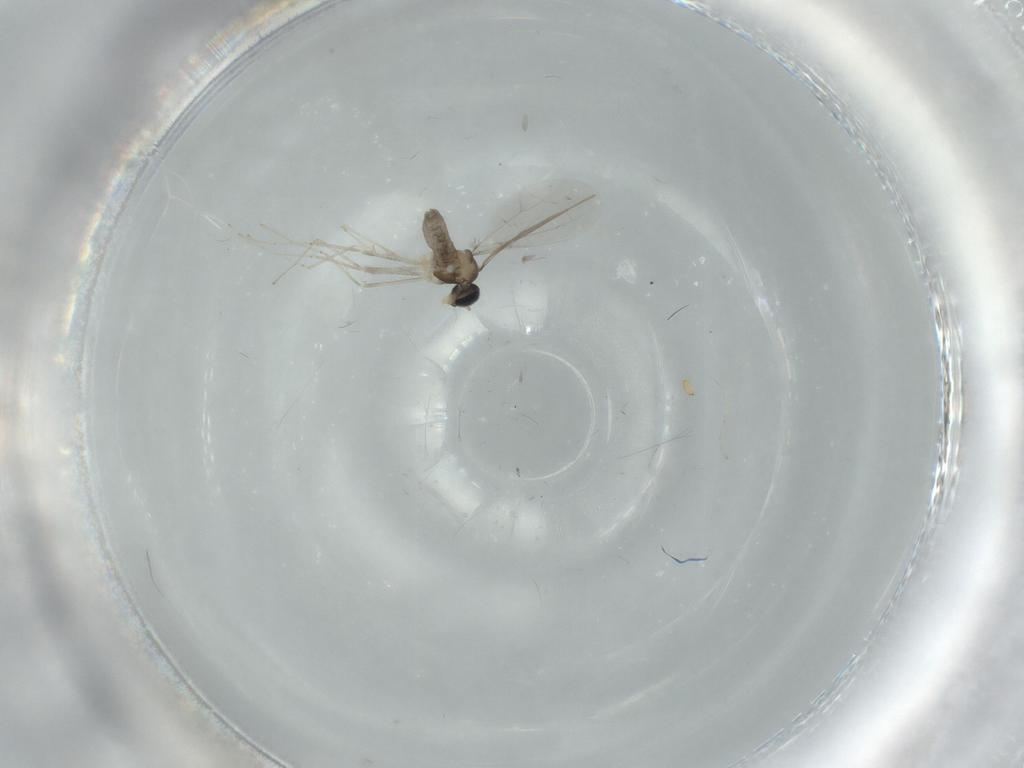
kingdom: Animalia
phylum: Arthropoda
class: Insecta
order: Diptera
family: Cecidomyiidae
